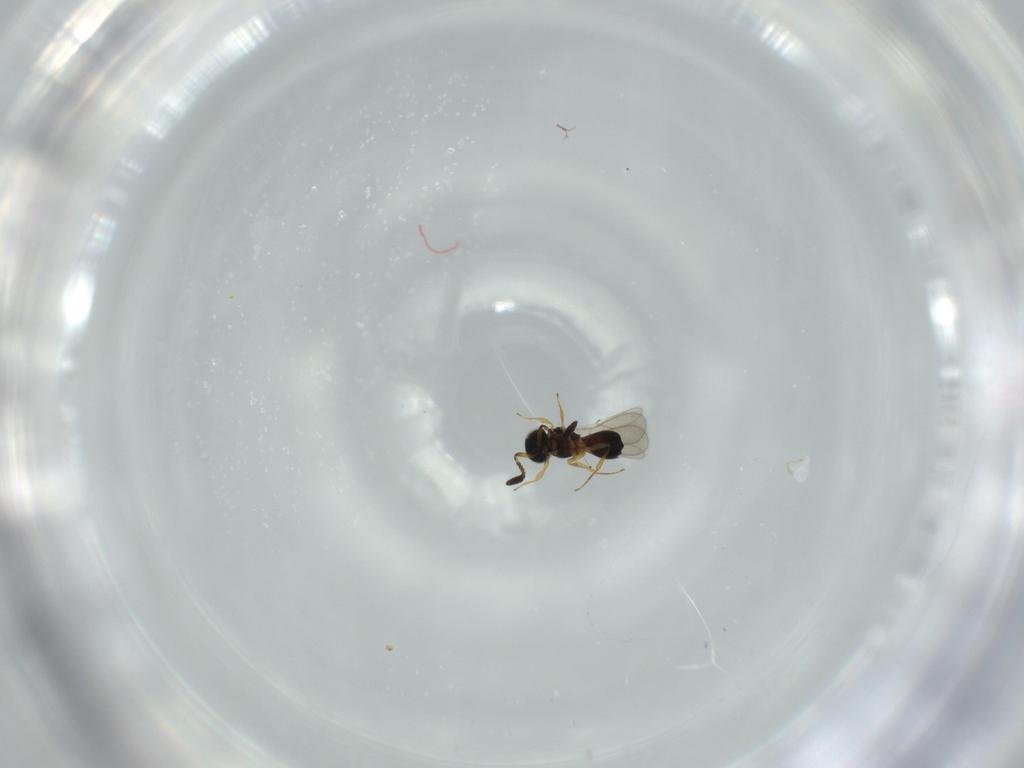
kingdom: Animalia
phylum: Arthropoda
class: Insecta
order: Hymenoptera
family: Scelionidae
